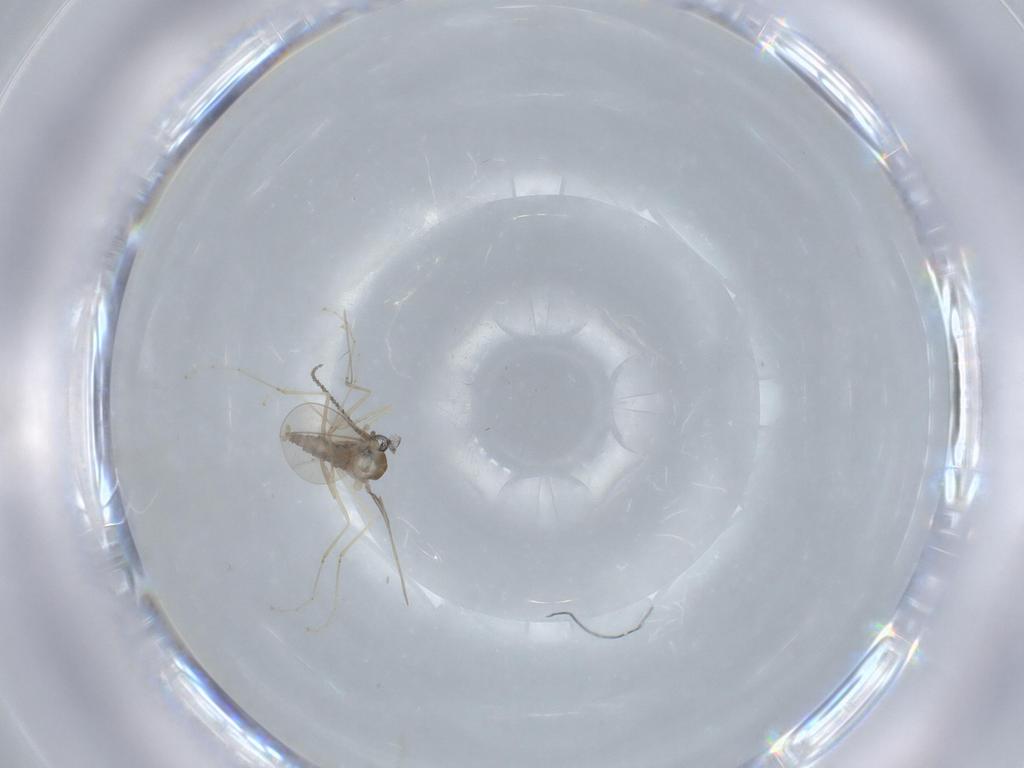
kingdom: Animalia
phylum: Arthropoda
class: Insecta
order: Diptera
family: Cecidomyiidae
